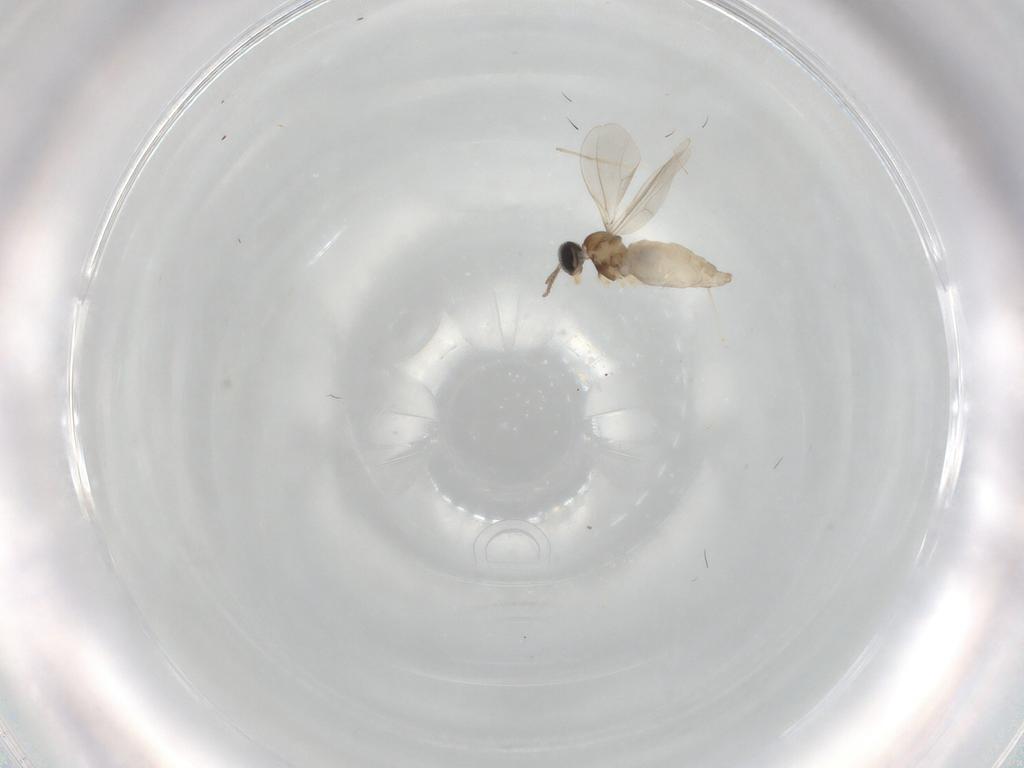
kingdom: Animalia
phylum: Arthropoda
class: Insecta
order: Diptera
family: Cecidomyiidae
